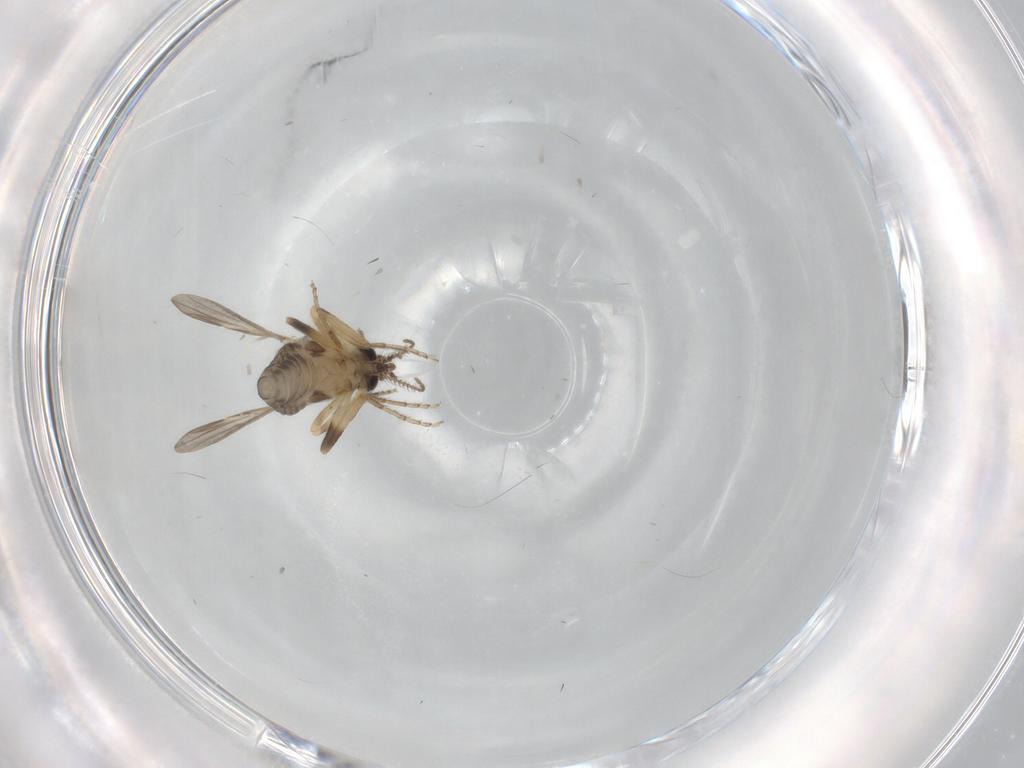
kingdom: Animalia
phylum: Arthropoda
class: Insecta
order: Diptera
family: Ceratopogonidae
